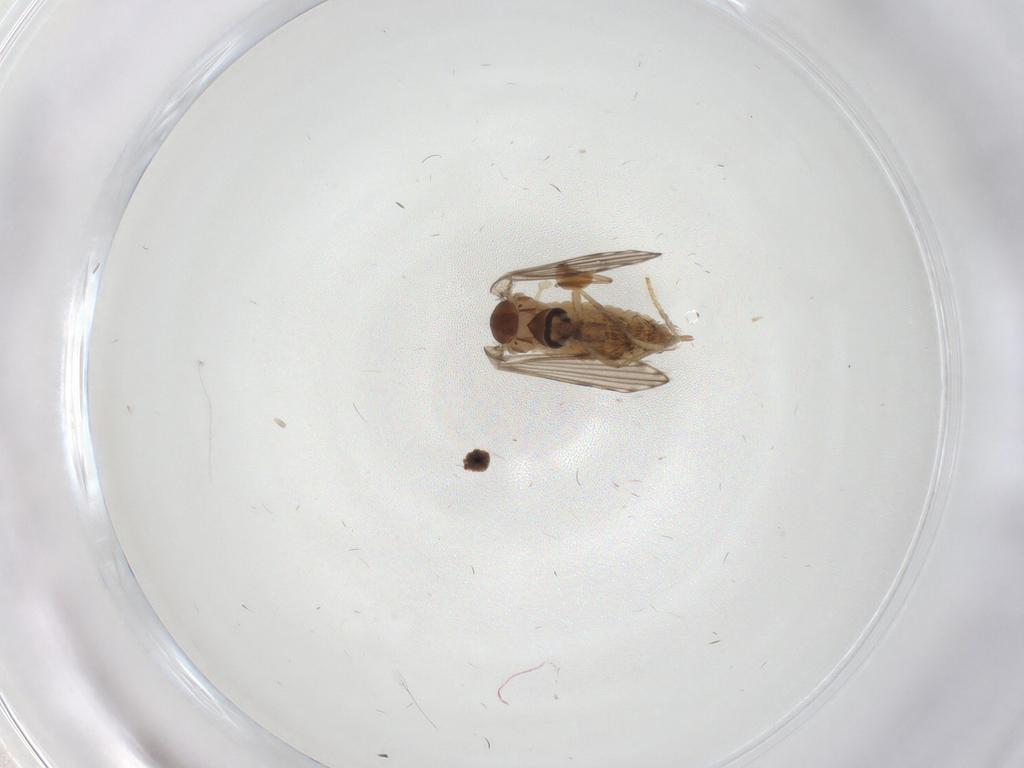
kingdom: Animalia
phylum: Arthropoda
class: Insecta
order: Diptera
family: Chironomidae
